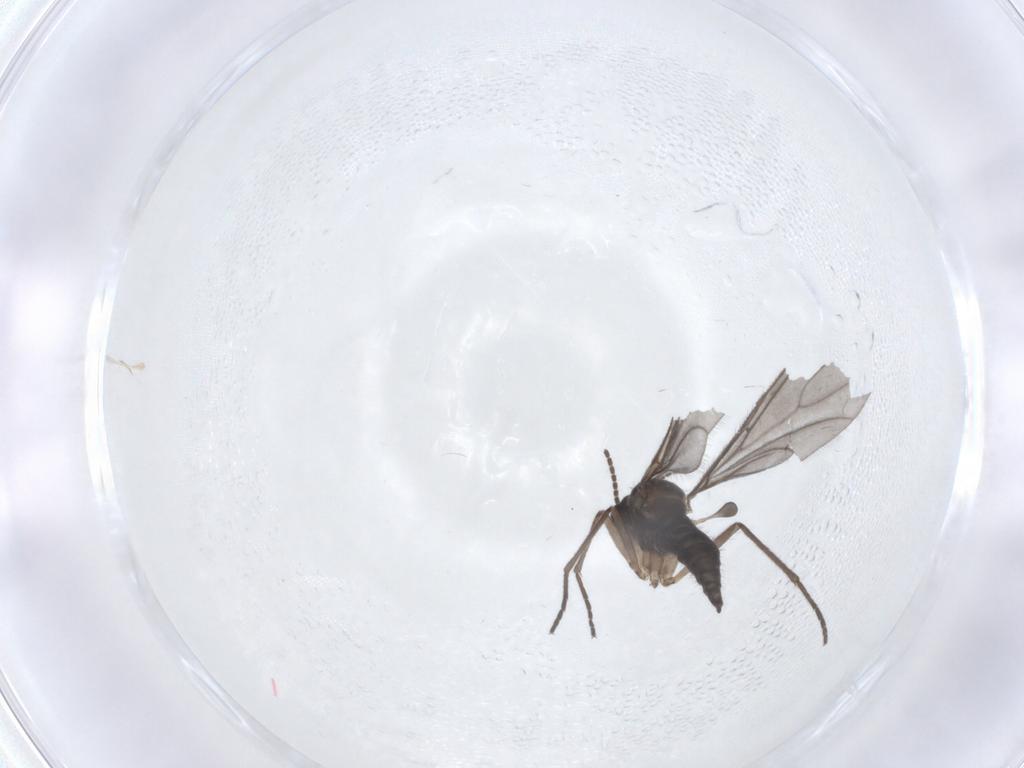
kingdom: Animalia
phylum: Arthropoda
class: Insecta
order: Diptera
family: Sciaridae
